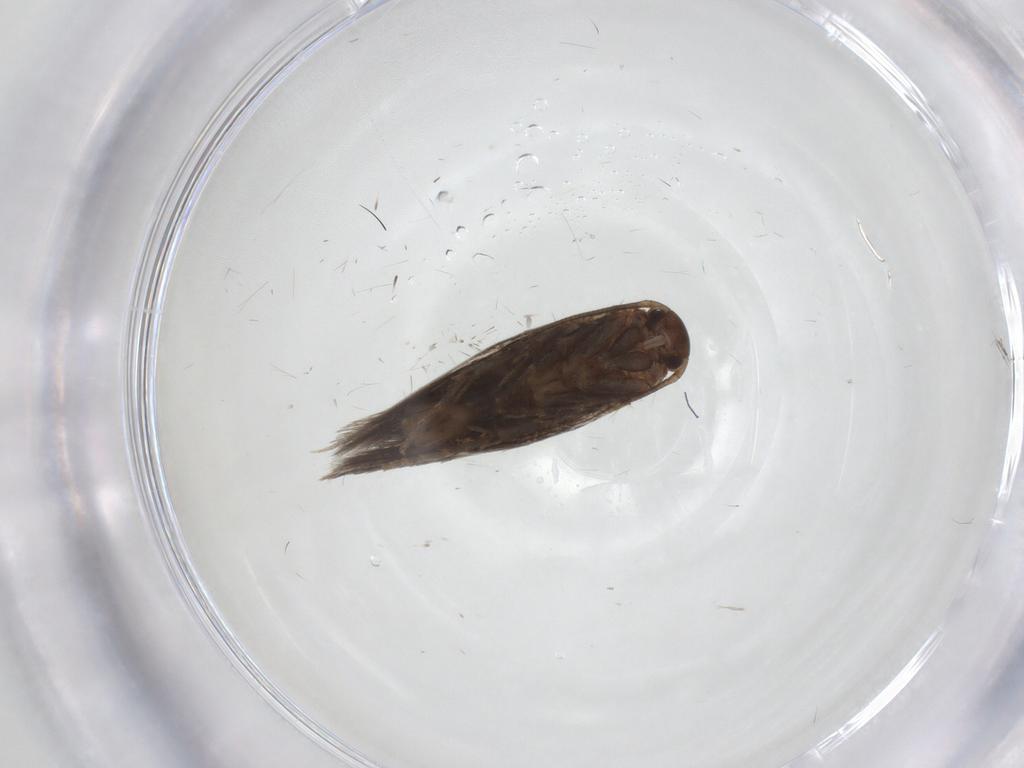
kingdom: Animalia
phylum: Arthropoda
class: Insecta
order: Lepidoptera
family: Elachistidae
